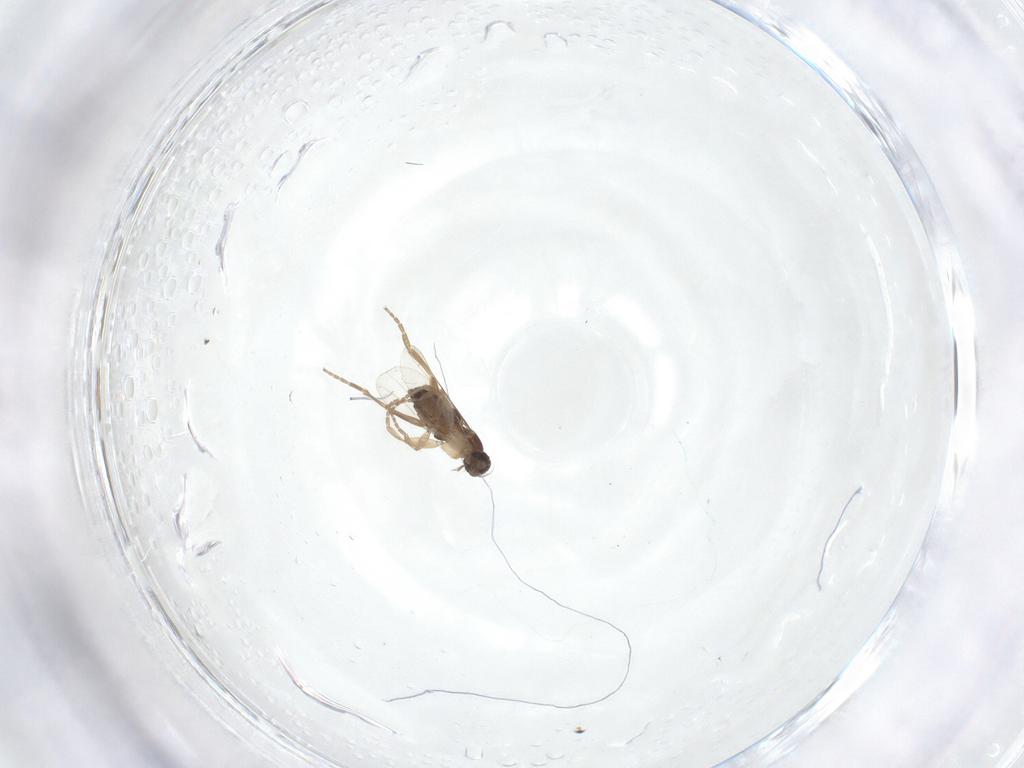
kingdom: Animalia
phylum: Arthropoda
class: Insecta
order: Diptera
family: Phoridae
